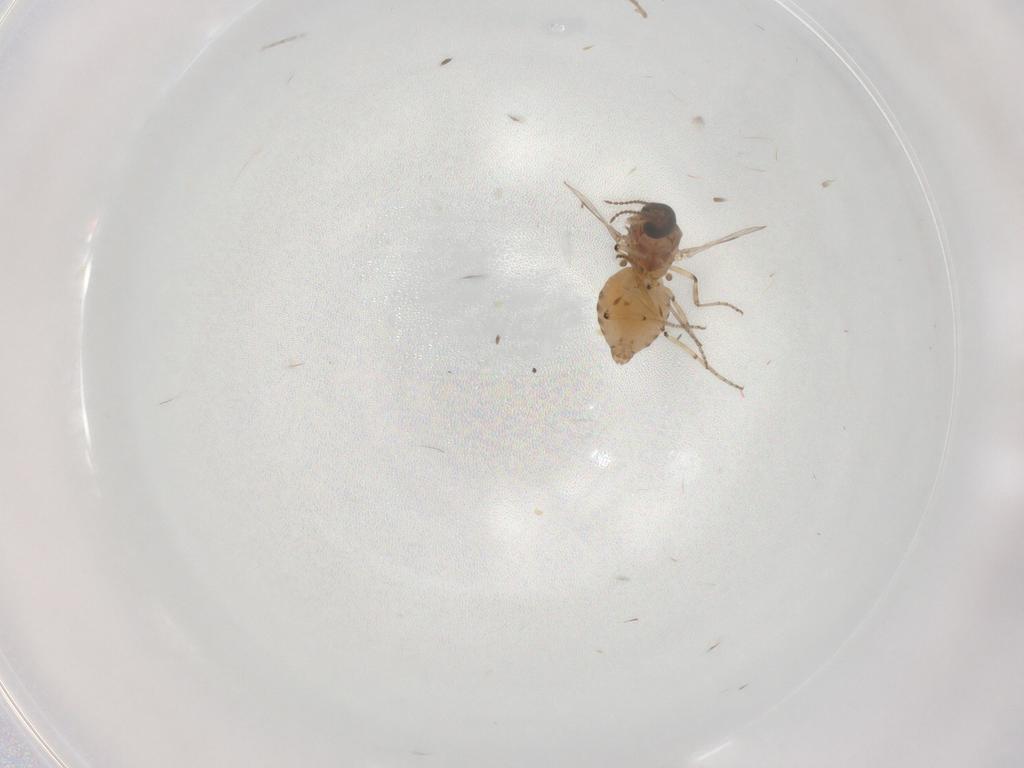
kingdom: Animalia
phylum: Arthropoda
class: Insecta
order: Diptera
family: Ceratopogonidae
